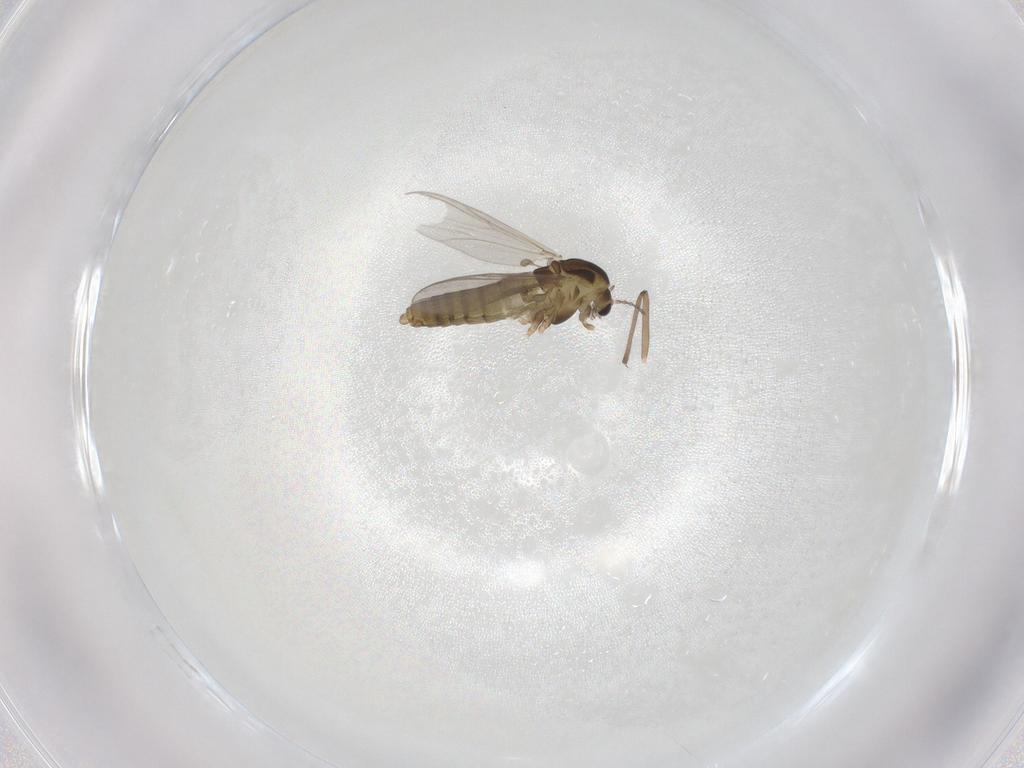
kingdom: Animalia
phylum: Arthropoda
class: Insecta
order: Diptera
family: Chironomidae
